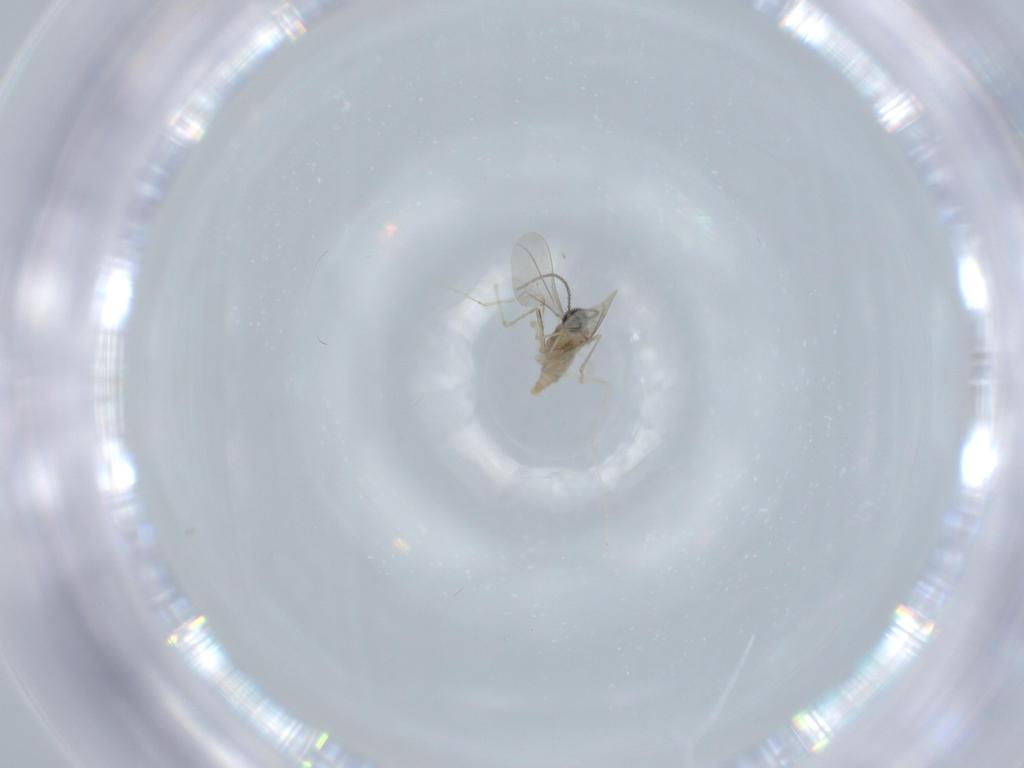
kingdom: Animalia
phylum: Arthropoda
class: Insecta
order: Diptera
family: Cecidomyiidae
